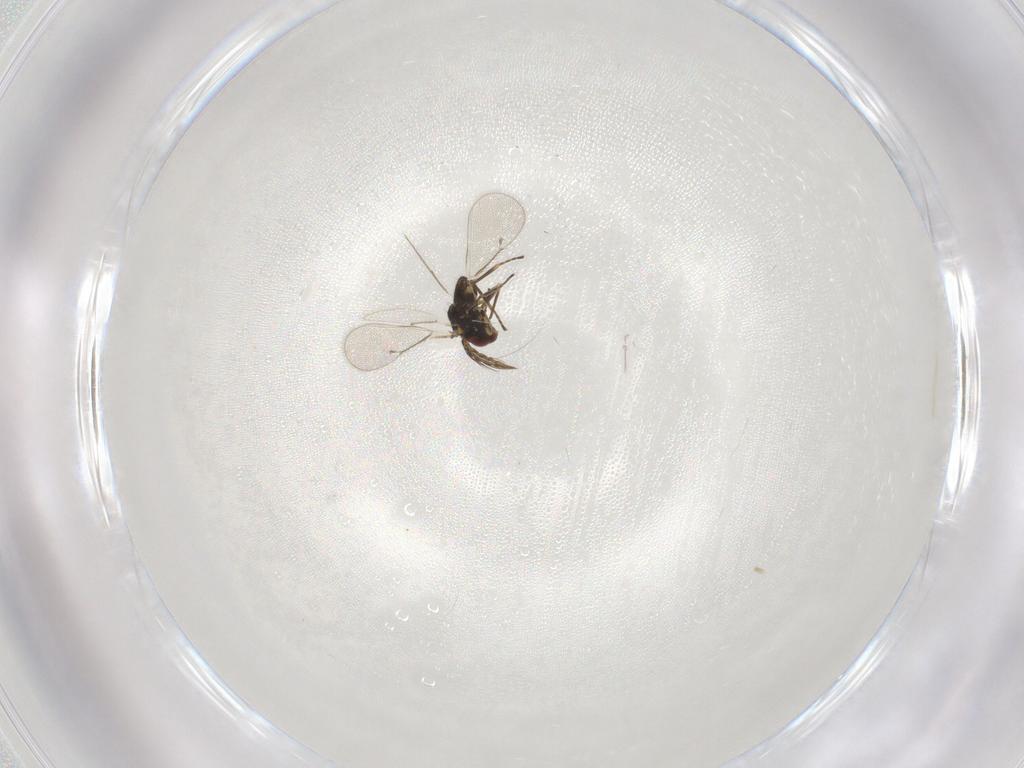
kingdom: Animalia
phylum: Arthropoda
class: Insecta
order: Hymenoptera
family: Eulophidae
